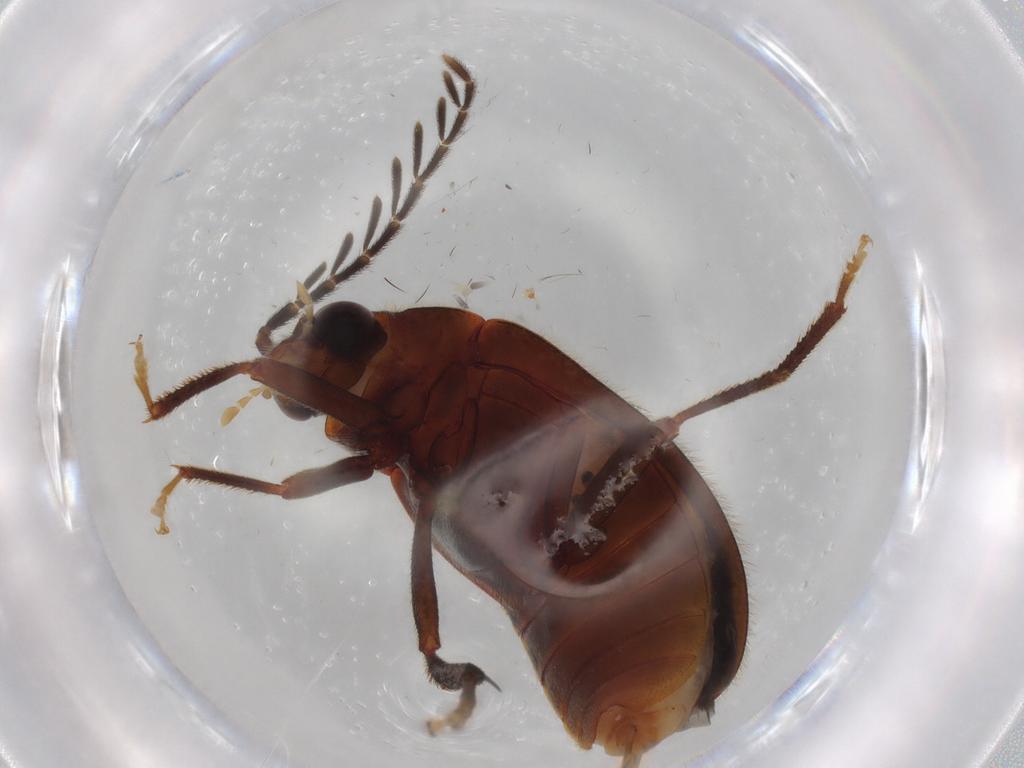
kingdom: Animalia
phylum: Arthropoda
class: Insecta
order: Coleoptera
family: Ptilodactylidae
